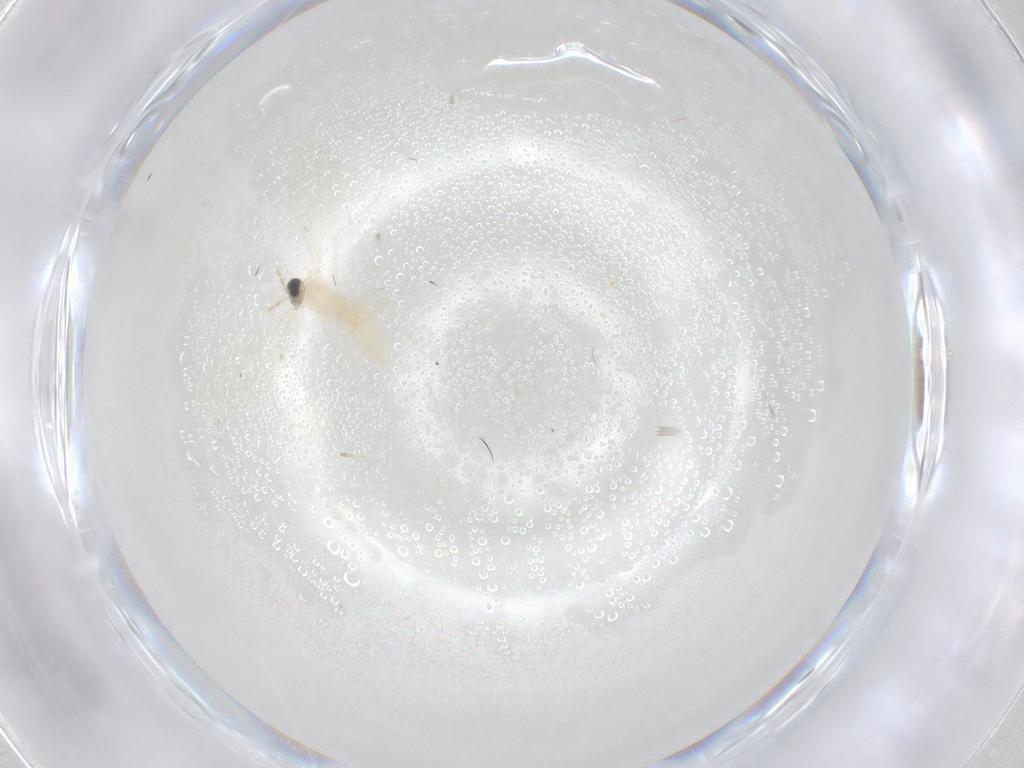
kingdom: Animalia
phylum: Arthropoda
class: Insecta
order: Diptera
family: Cecidomyiidae
